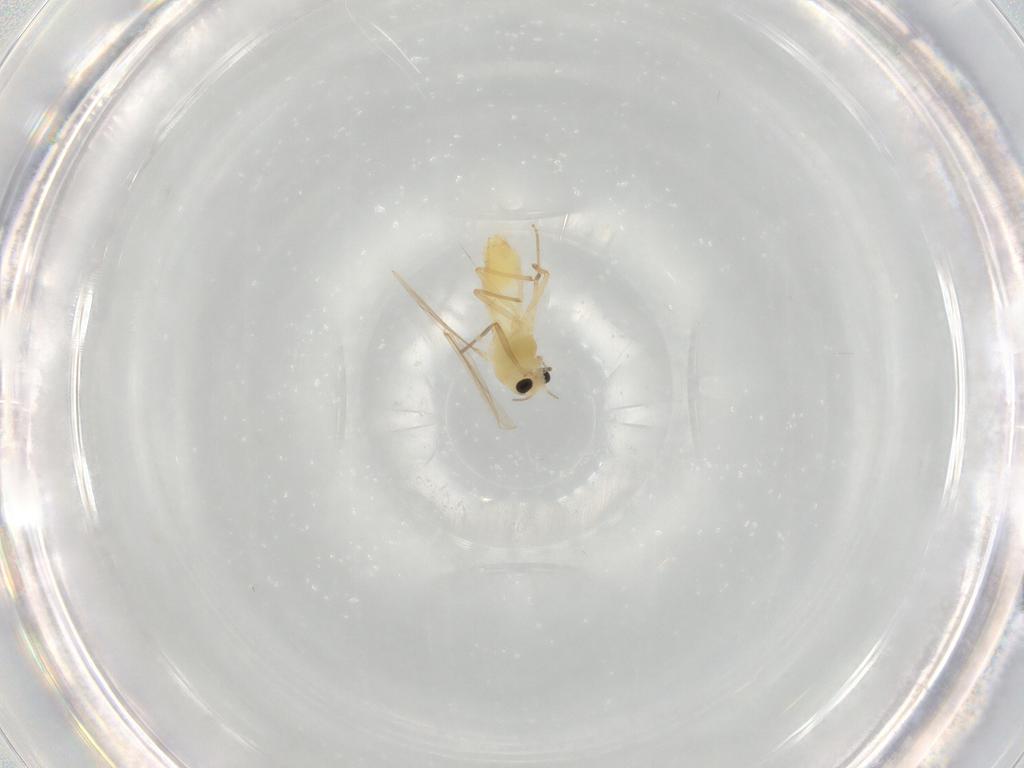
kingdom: Animalia
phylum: Arthropoda
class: Insecta
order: Diptera
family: Chironomidae
